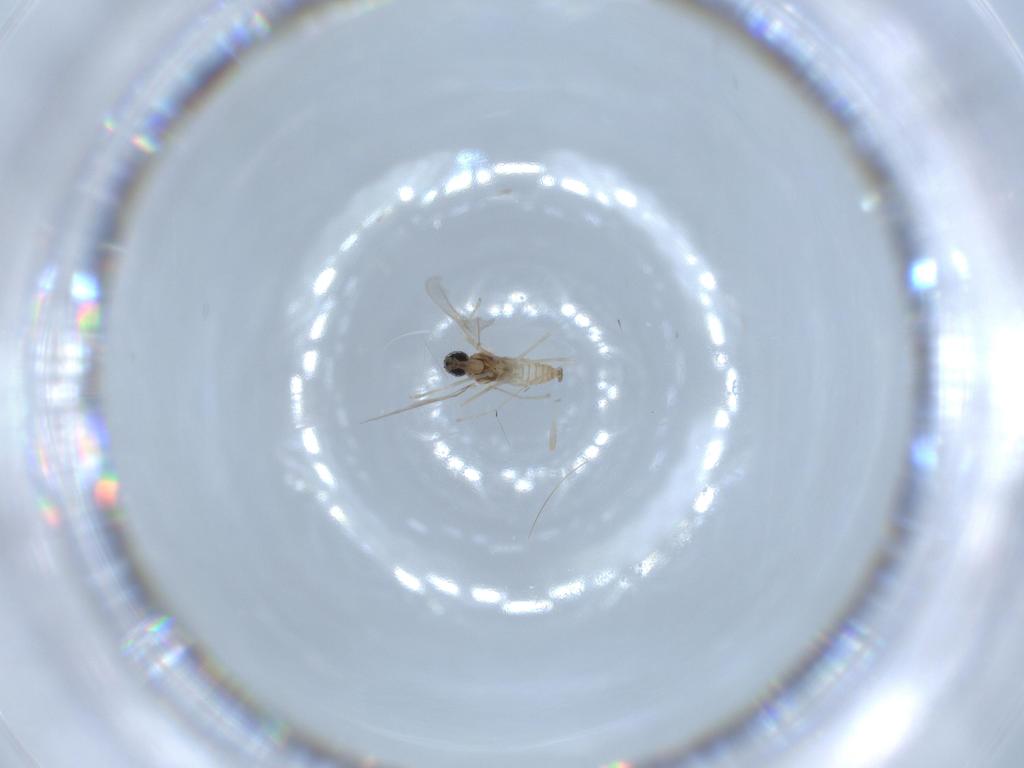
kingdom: Animalia
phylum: Arthropoda
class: Insecta
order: Diptera
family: Cecidomyiidae
